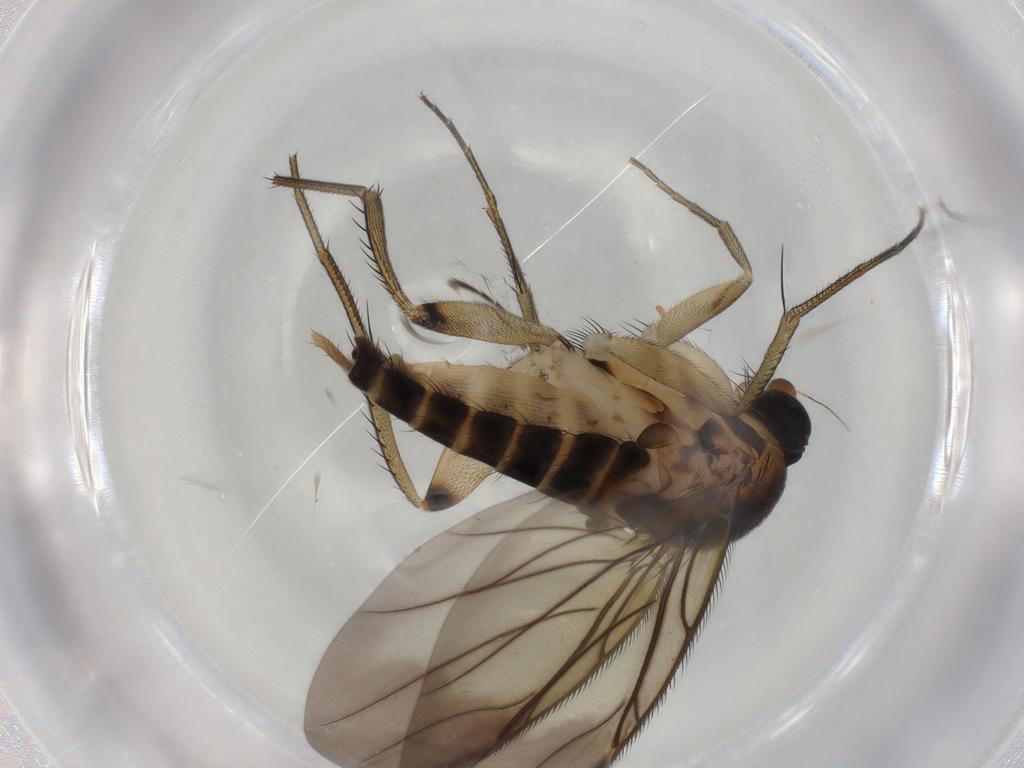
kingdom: Animalia
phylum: Arthropoda
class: Insecta
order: Diptera
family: Phoridae
